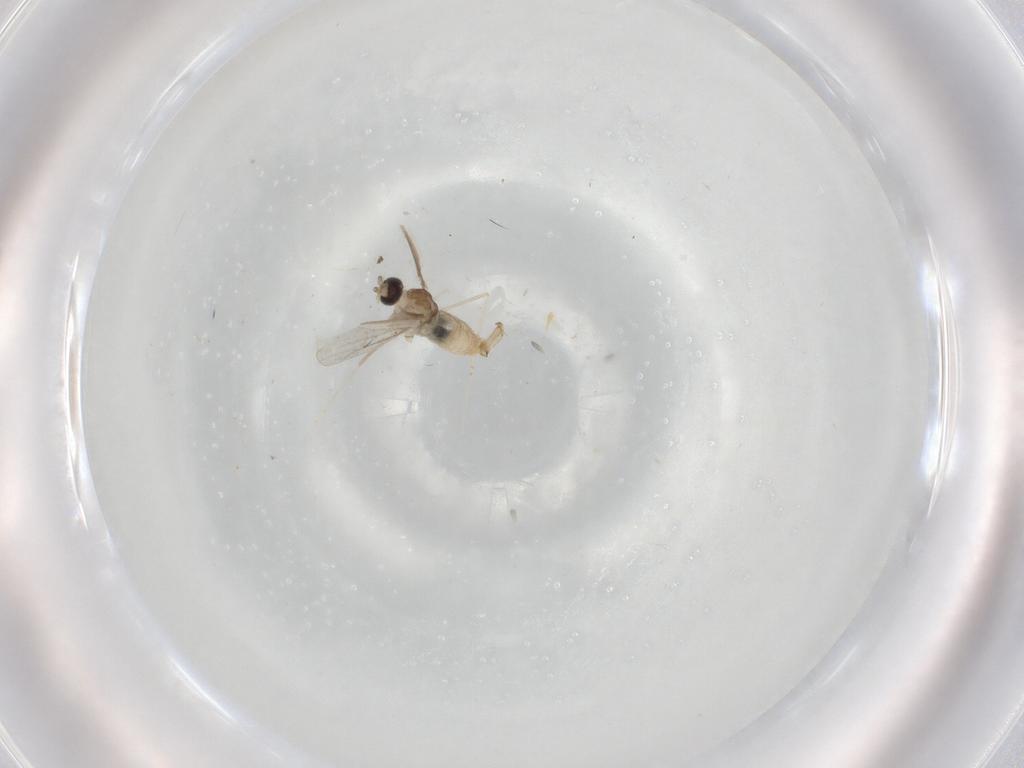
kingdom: Animalia
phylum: Arthropoda
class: Insecta
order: Diptera
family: Cecidomyiidae
